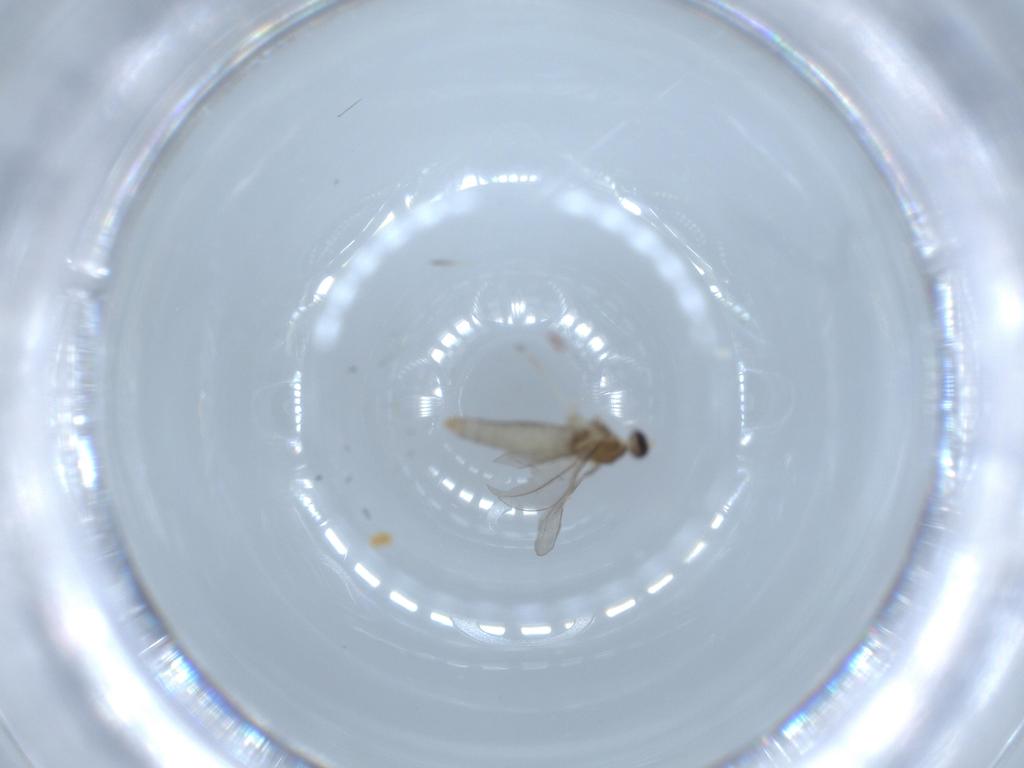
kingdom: Animalia
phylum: Arthropoda
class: Insecta
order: Diptera
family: Cecidomyiidae
